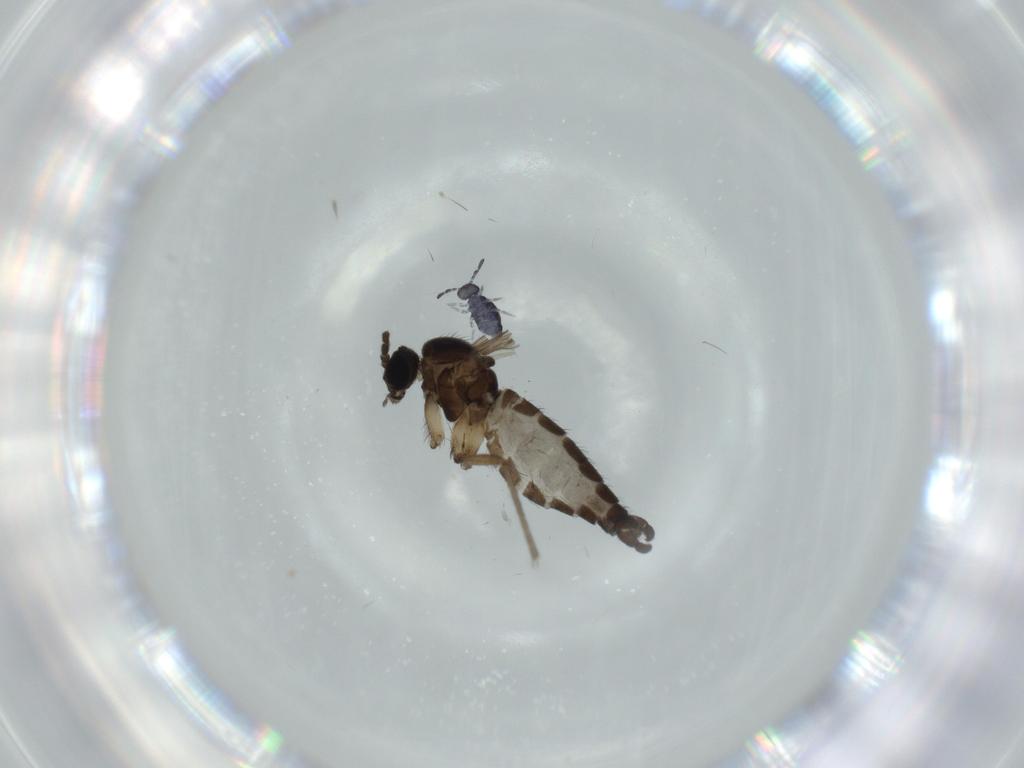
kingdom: Animalia
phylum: Arthropoda
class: Insecta
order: Diptera
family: Sciaridae
